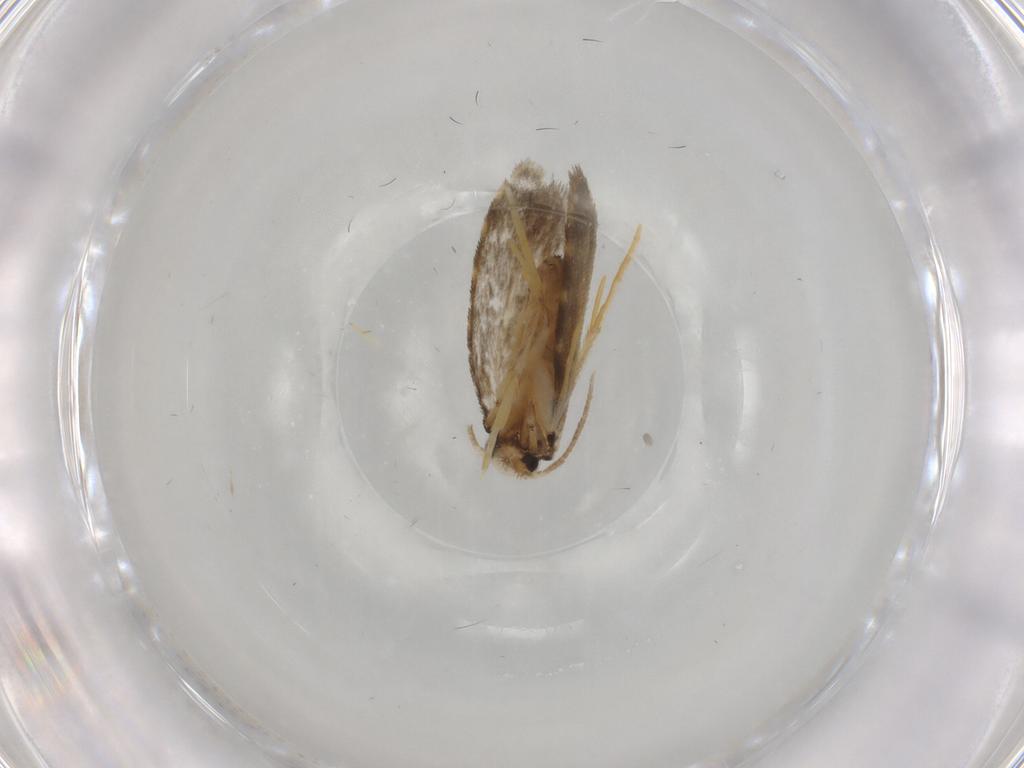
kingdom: Animalia
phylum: Arthropoda
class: Insecta
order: Lepidoptera
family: Psychidae
